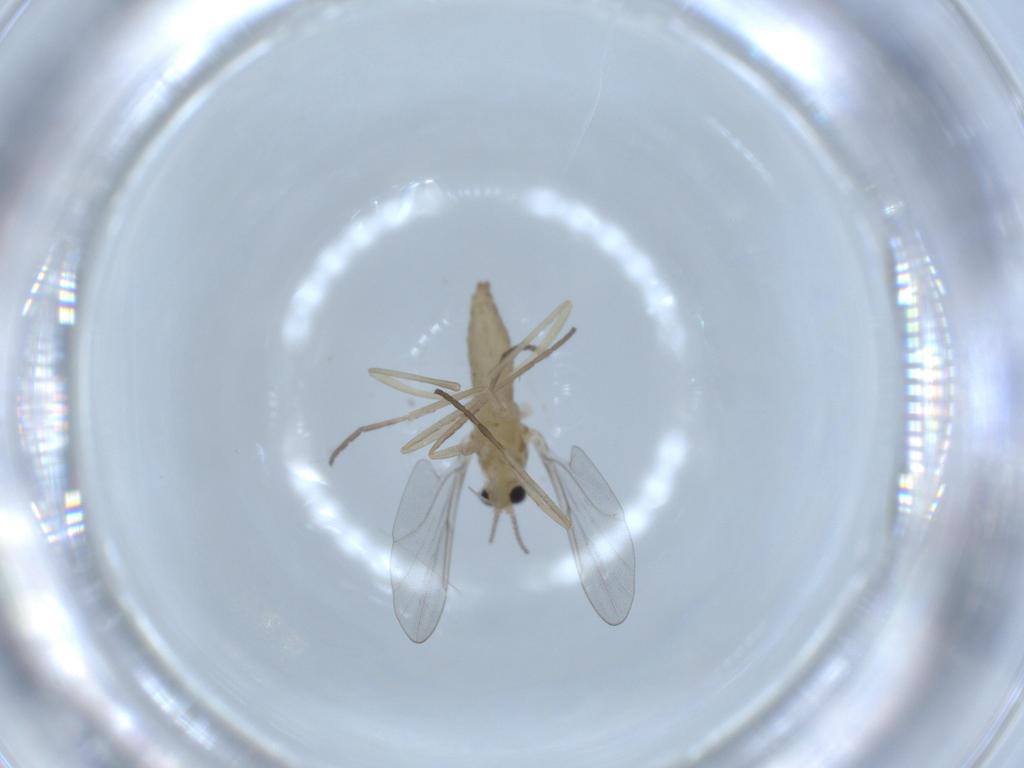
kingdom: Animalia
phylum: Arthropoda
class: Insecta
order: Diptera
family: Cecidomyiidae
